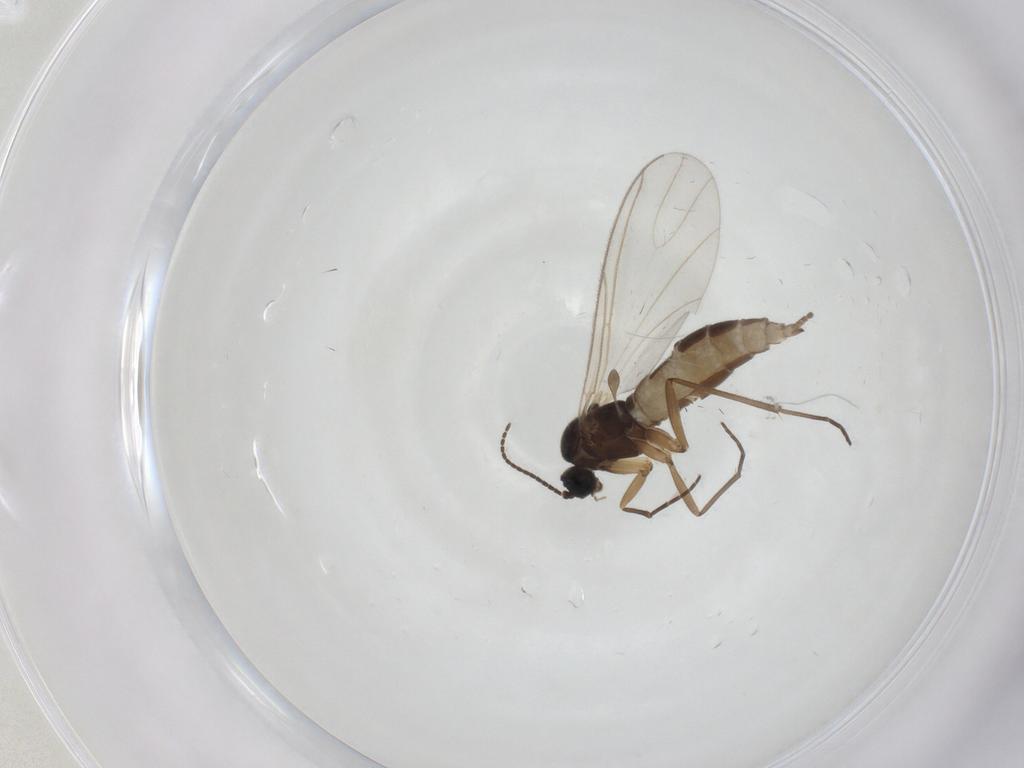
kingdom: Animalia
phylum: Arthropoda
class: Insecta
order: Diptera
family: Sciaridae
